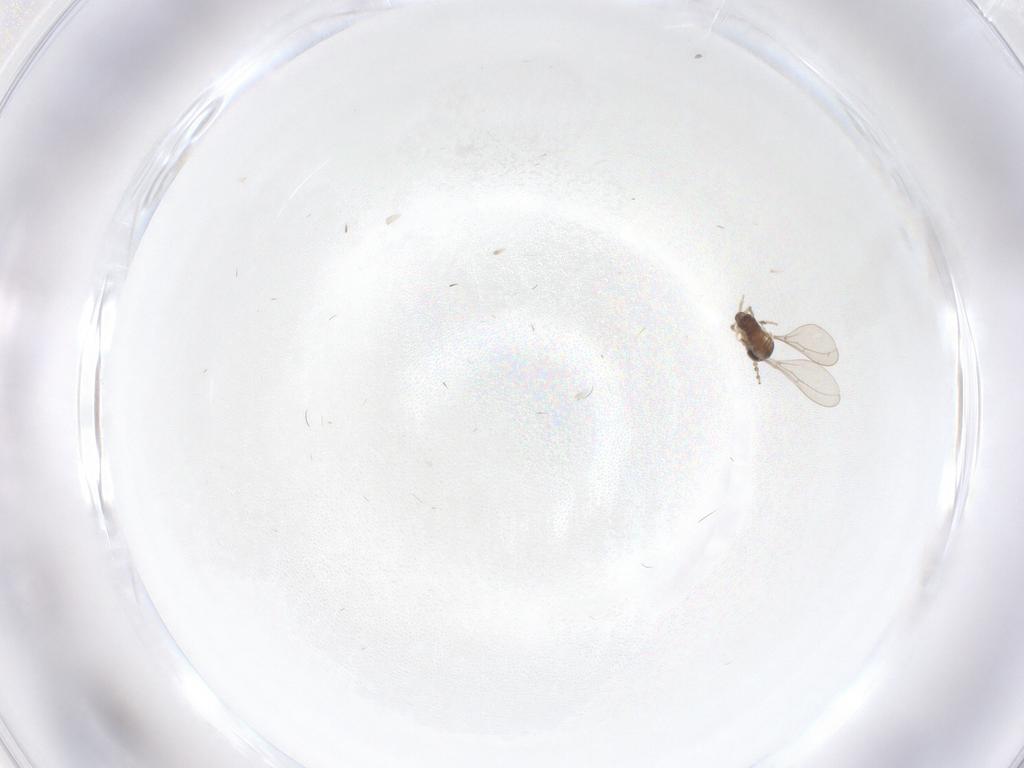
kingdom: Animalia
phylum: Arthropoda
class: Insecta
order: Diptera
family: Cecidomyiidae
